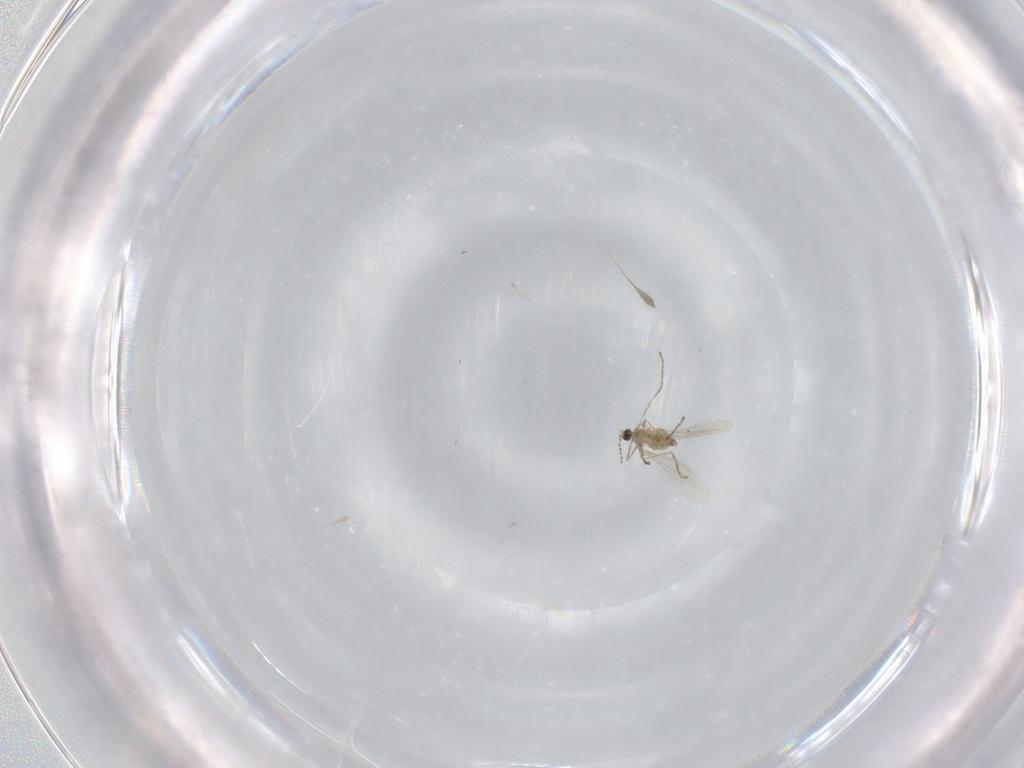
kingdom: Animalia
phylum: Arthropoda
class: Insecta
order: Diptera
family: Cecidomyiidae
